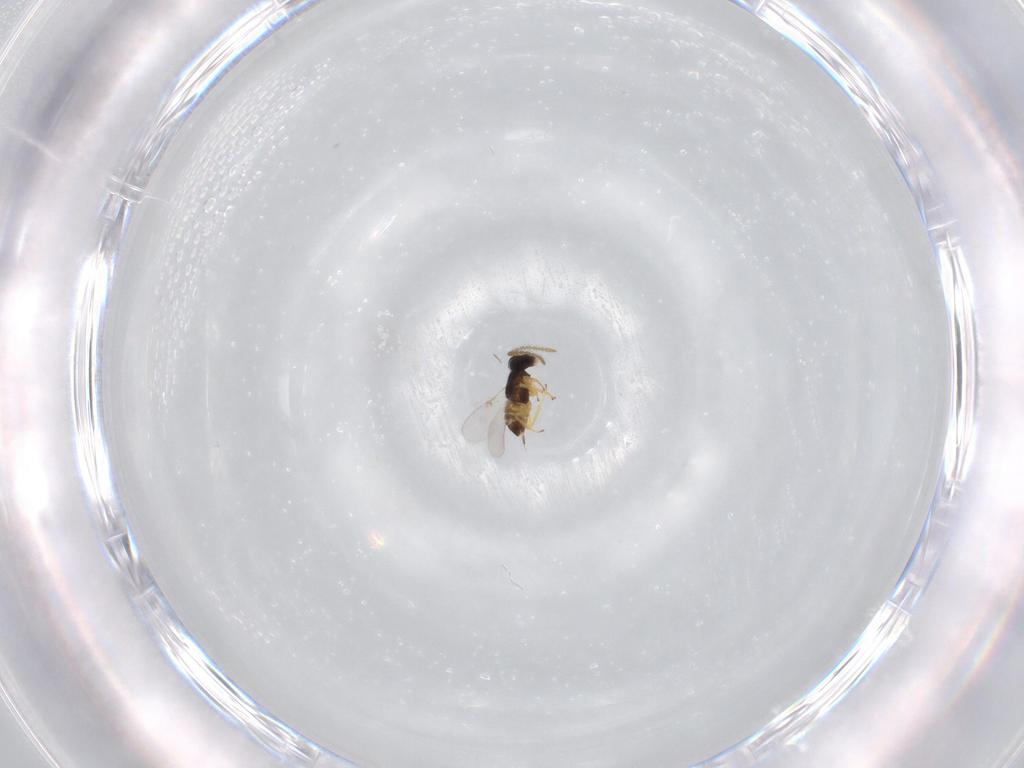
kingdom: Animalia
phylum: Arthropoda
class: Insecta
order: Hymenoptera
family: Encyrtidae
